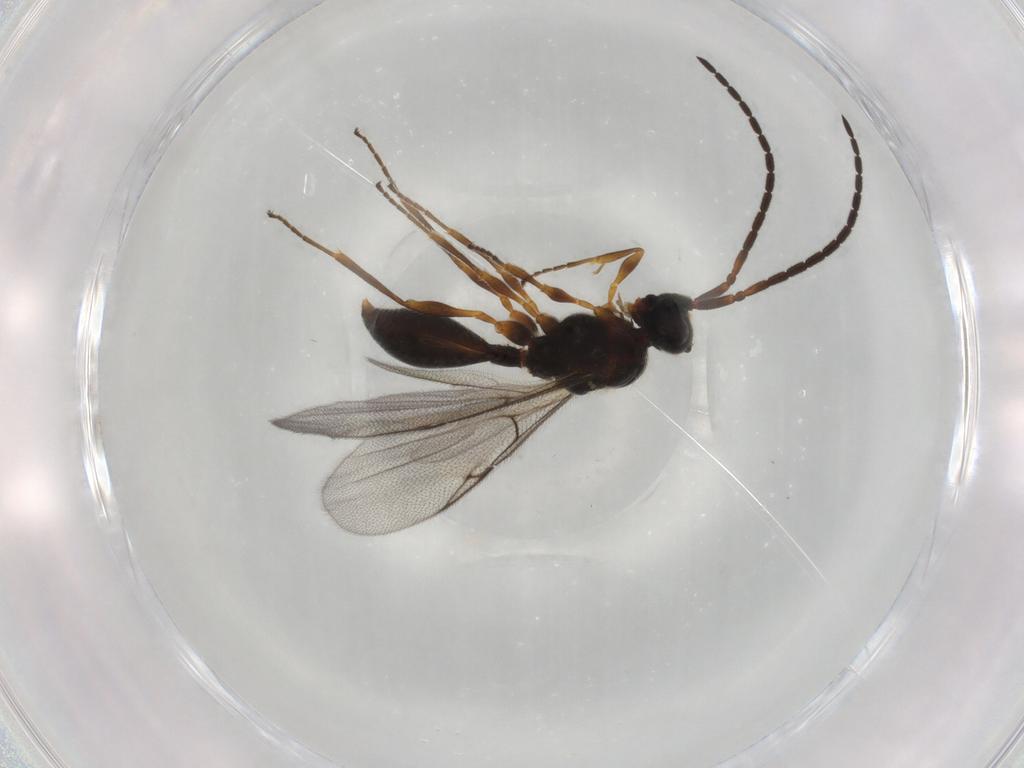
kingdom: Animalia
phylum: Arthropoda
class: Insecta
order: Hymenoptera
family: Diapriidae
